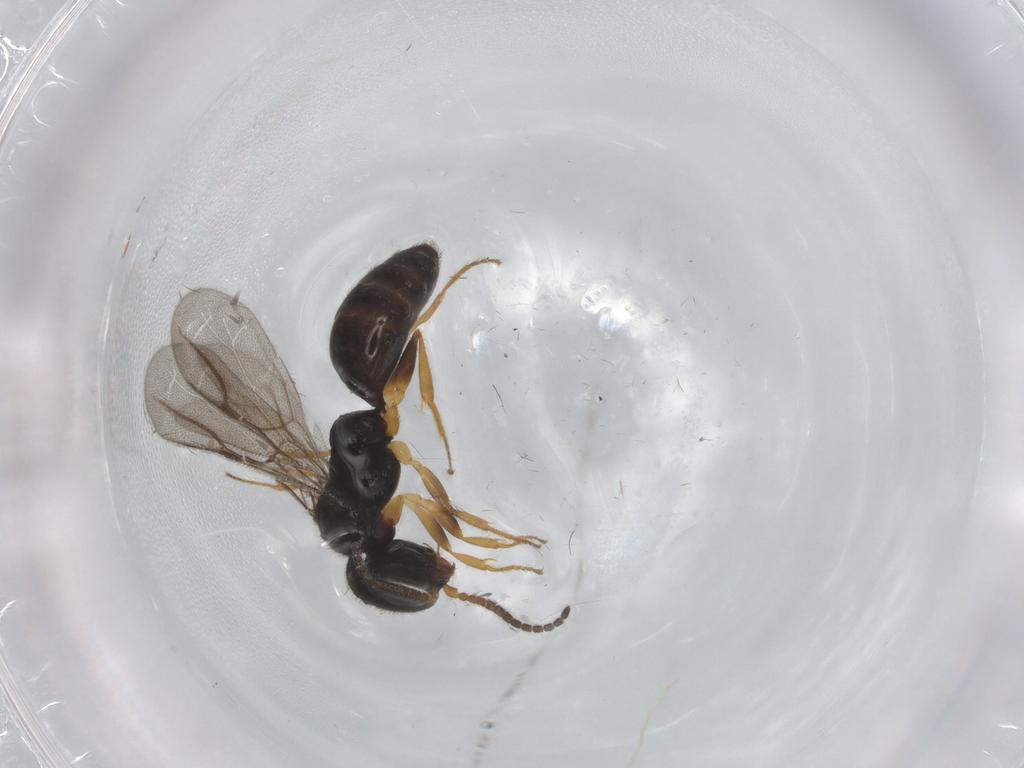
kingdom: Animalia
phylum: Arthropoda
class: Insecta
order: Hymenoptera
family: Bethylidae
